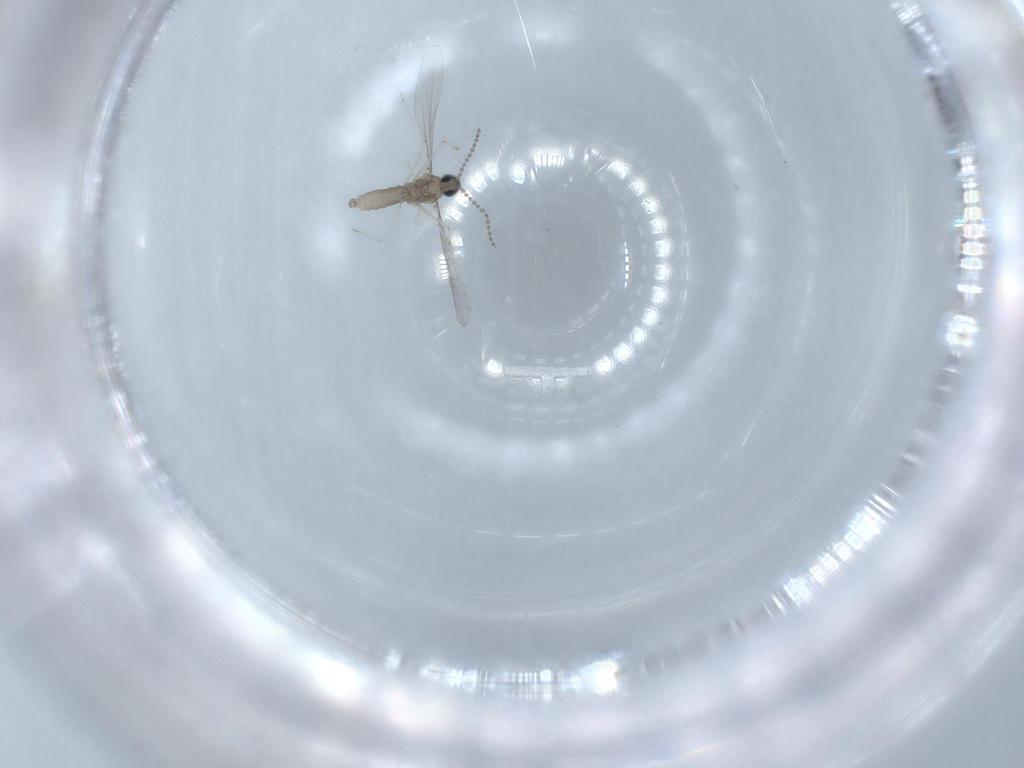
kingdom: Animalia
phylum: Arthropoda
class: Insecta
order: Diptera
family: Cecidomyiidae
